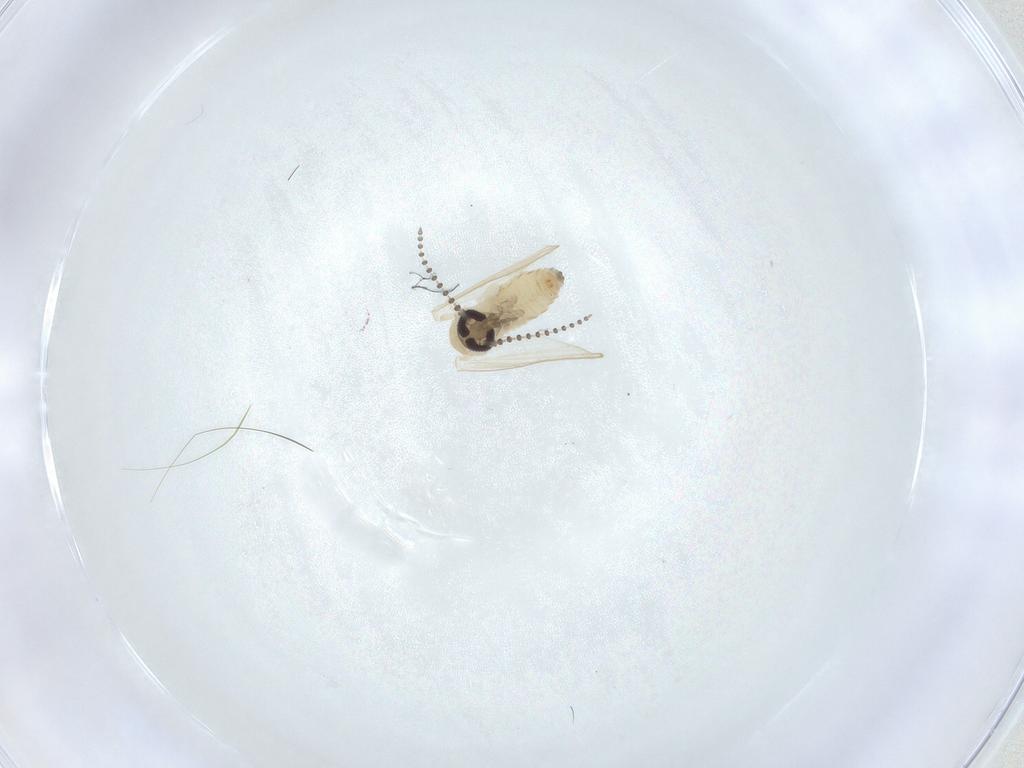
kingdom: Animalia
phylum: Arthropoda
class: Insecta
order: Diptera
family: Psychodidae
